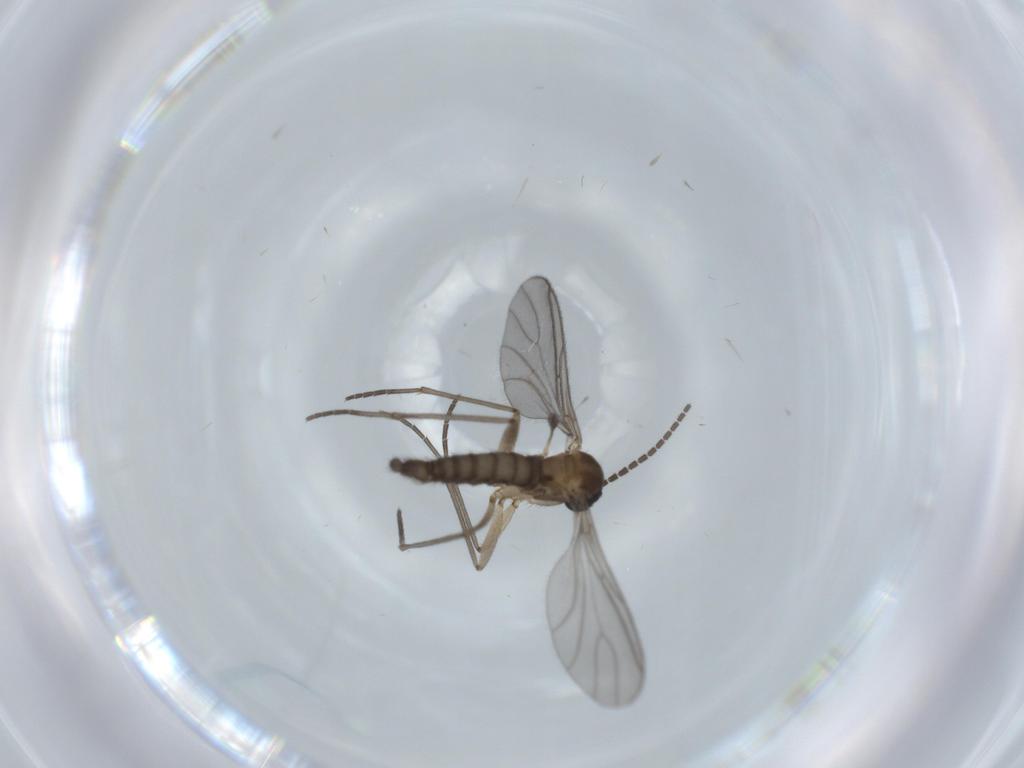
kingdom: Animalia
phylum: Arthropoda
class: Insecta
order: Diptera
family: Sciaridae
